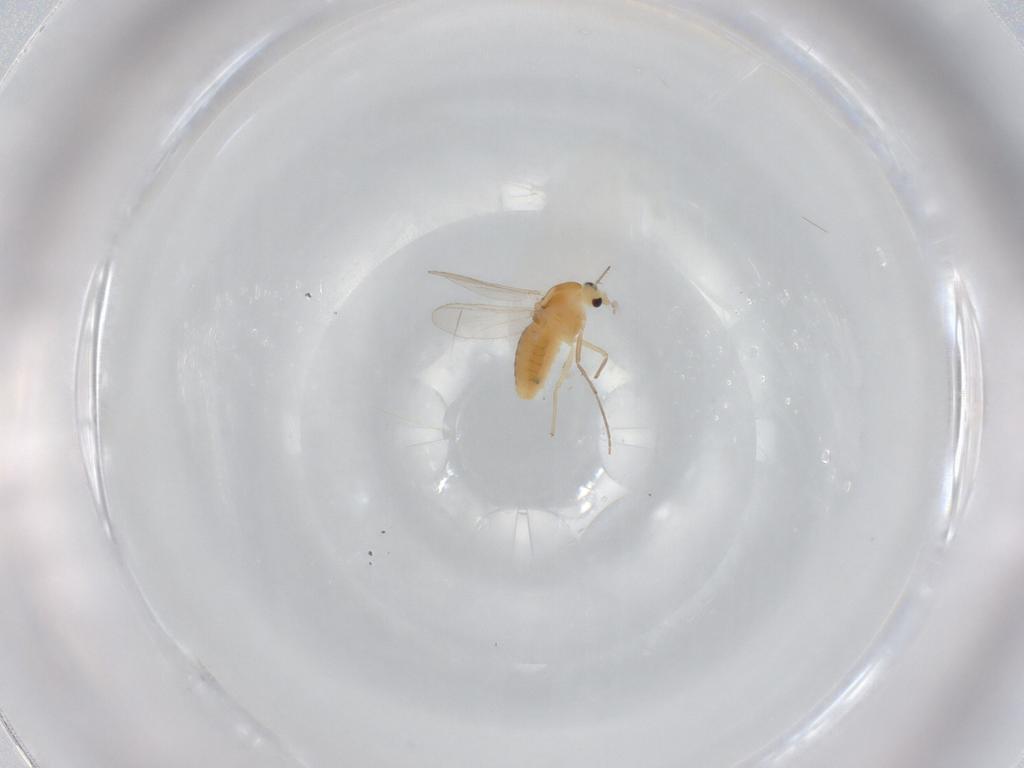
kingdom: Animalia
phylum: Arthropoda
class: Insecta
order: Diptera
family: Chironomidae
